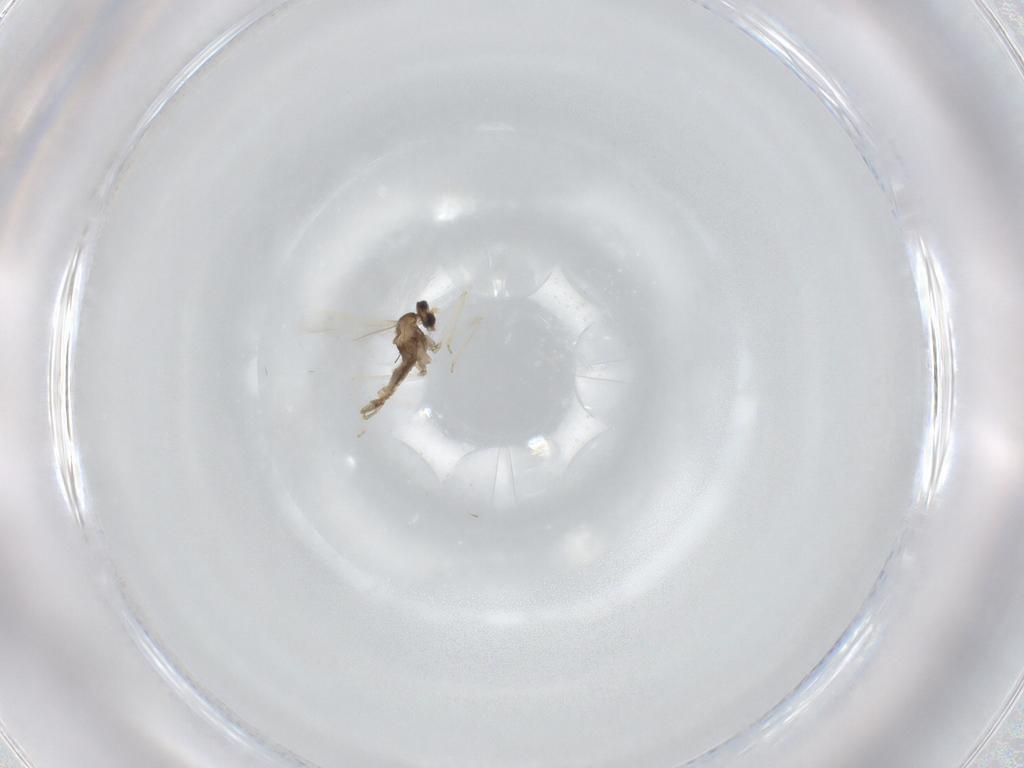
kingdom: Animalia
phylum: Arthropoda
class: Insecta
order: Diptera
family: Cecidomyiidae
